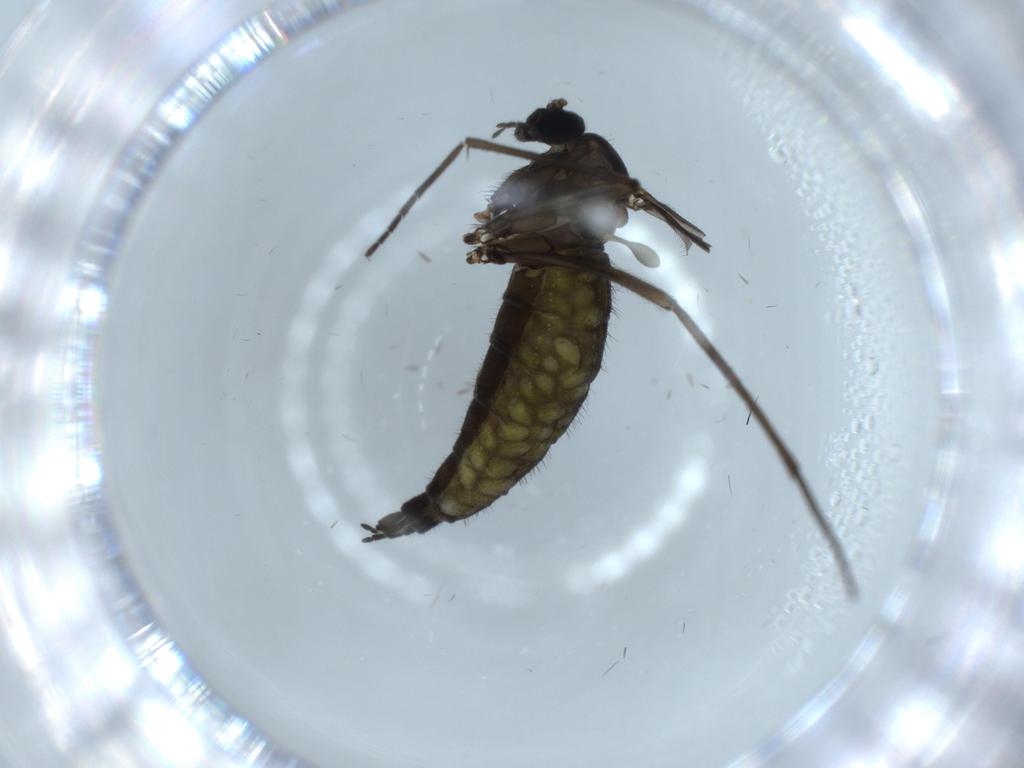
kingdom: Animalia
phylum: Arthropoda
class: Insecta
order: Diptera
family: Sciaridae
